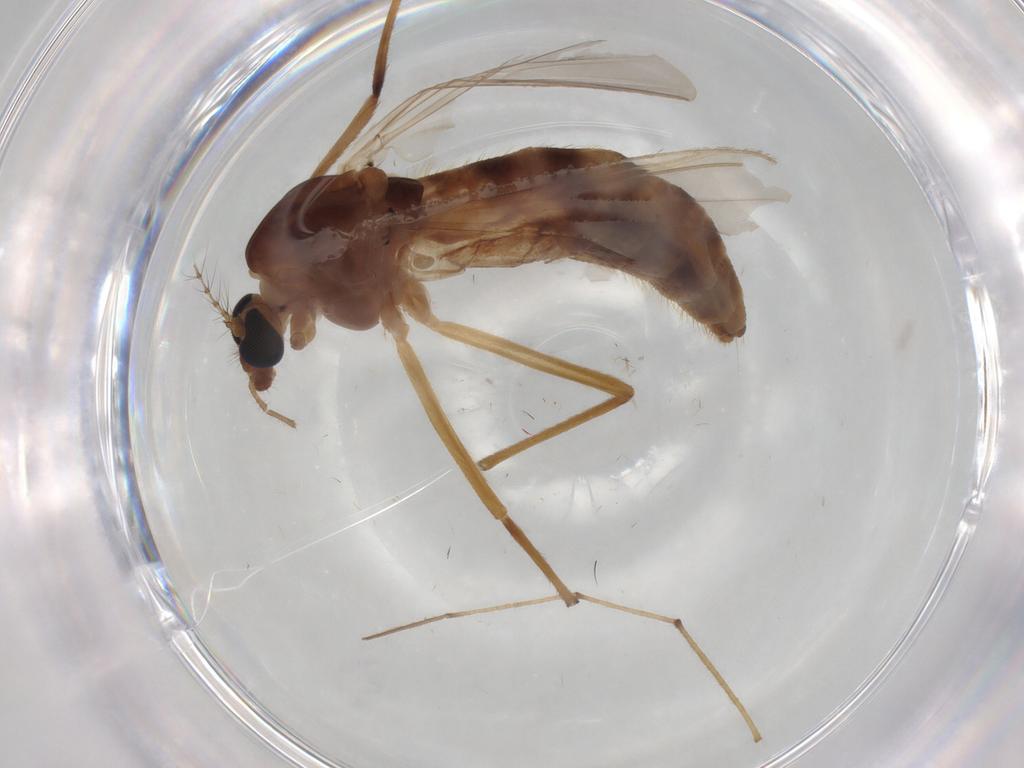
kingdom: Animalia
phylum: Arthropoda
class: Insecta
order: Diptera
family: Chironomidae
